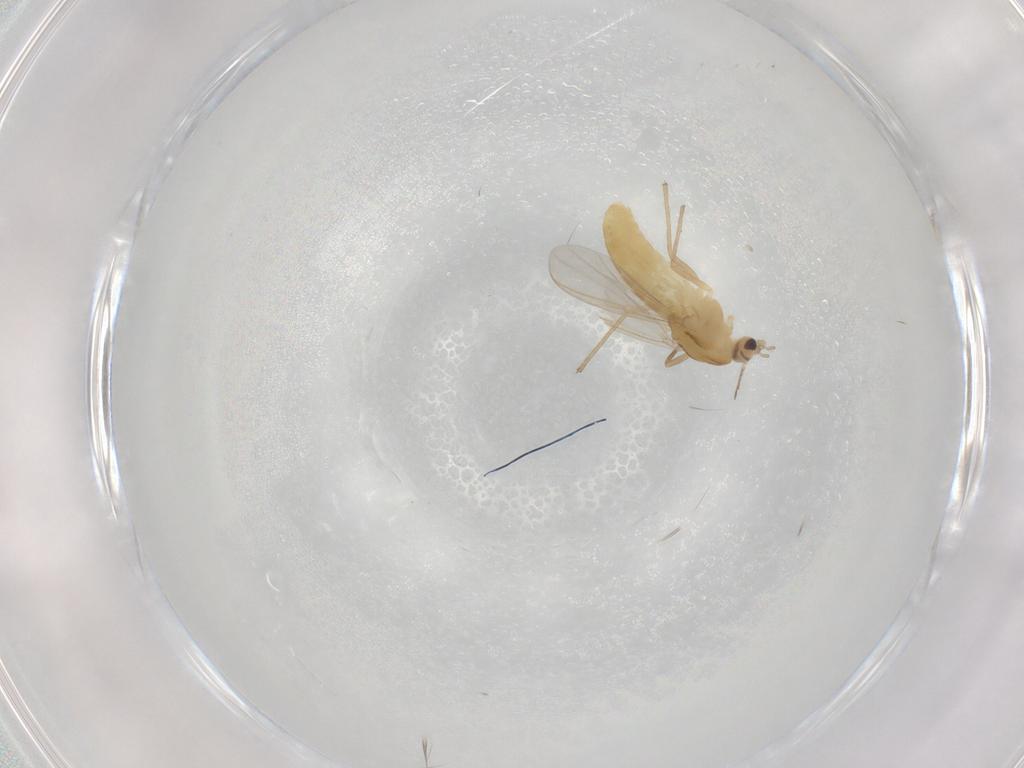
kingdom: Animalia
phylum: Arthropoda
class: Insecta
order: Diptera
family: Chironomidae
